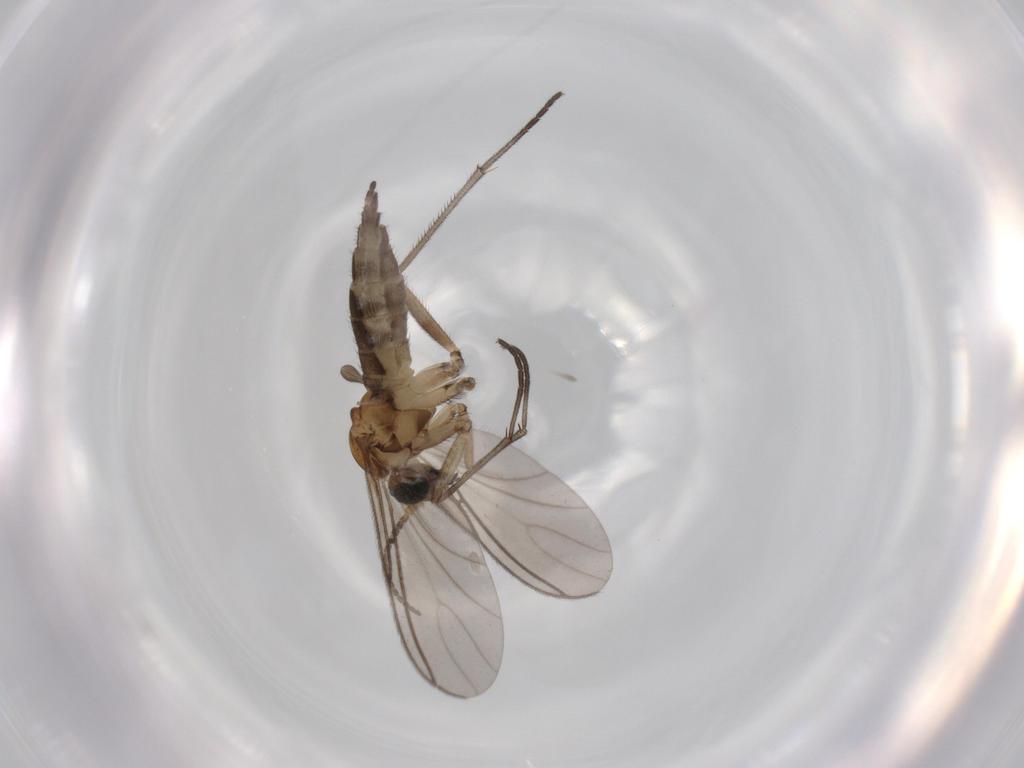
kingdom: Animalia
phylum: Arthropoda
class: Insecta
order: Diptera
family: Sciaridae
